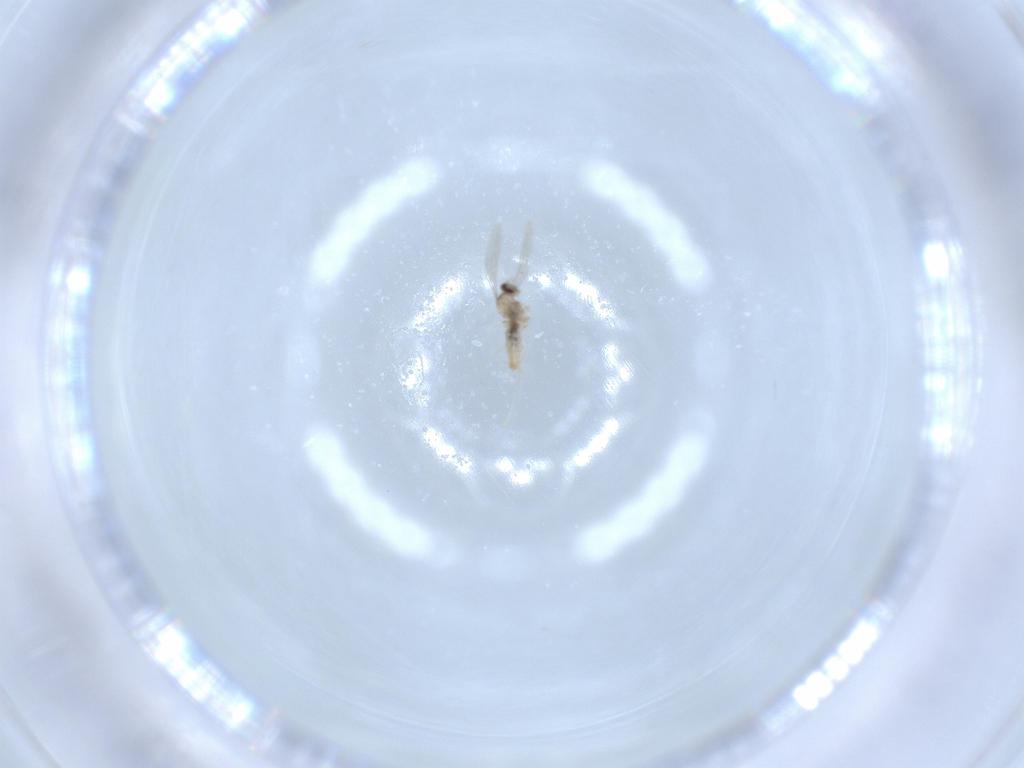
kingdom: Animalia
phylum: Arthropoda
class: Insecta
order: Diptera
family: Cecidomyiidae
